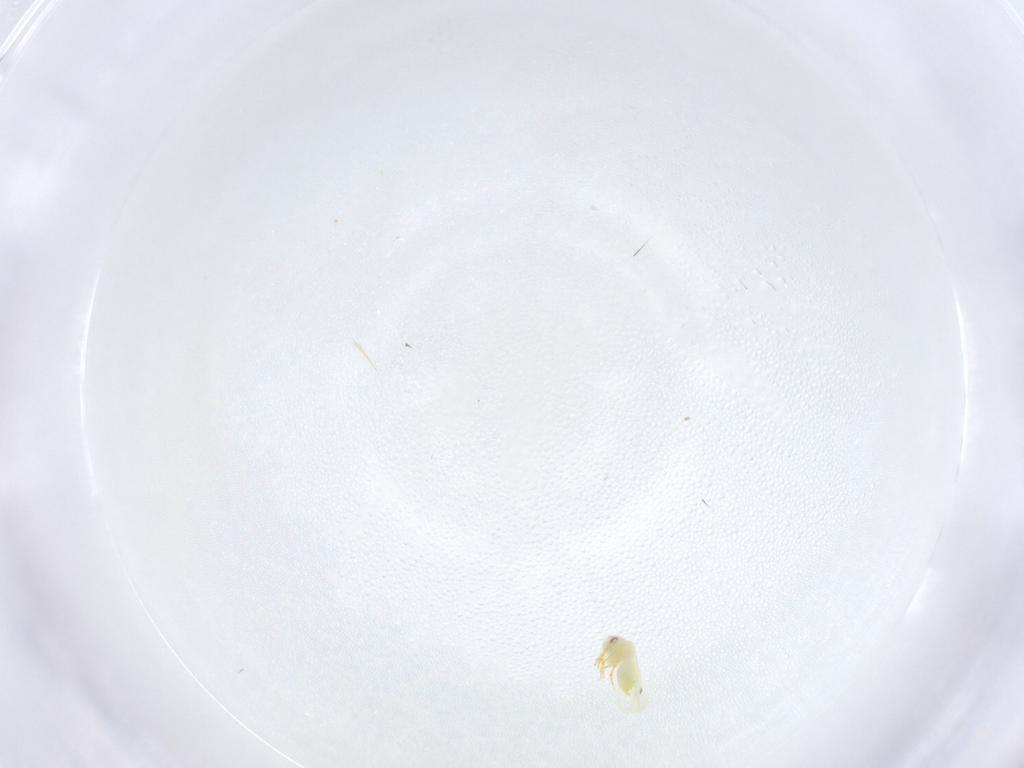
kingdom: Animalia
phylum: Arthropoda
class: Insecta
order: Hemiptera
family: Aleyrodidae
